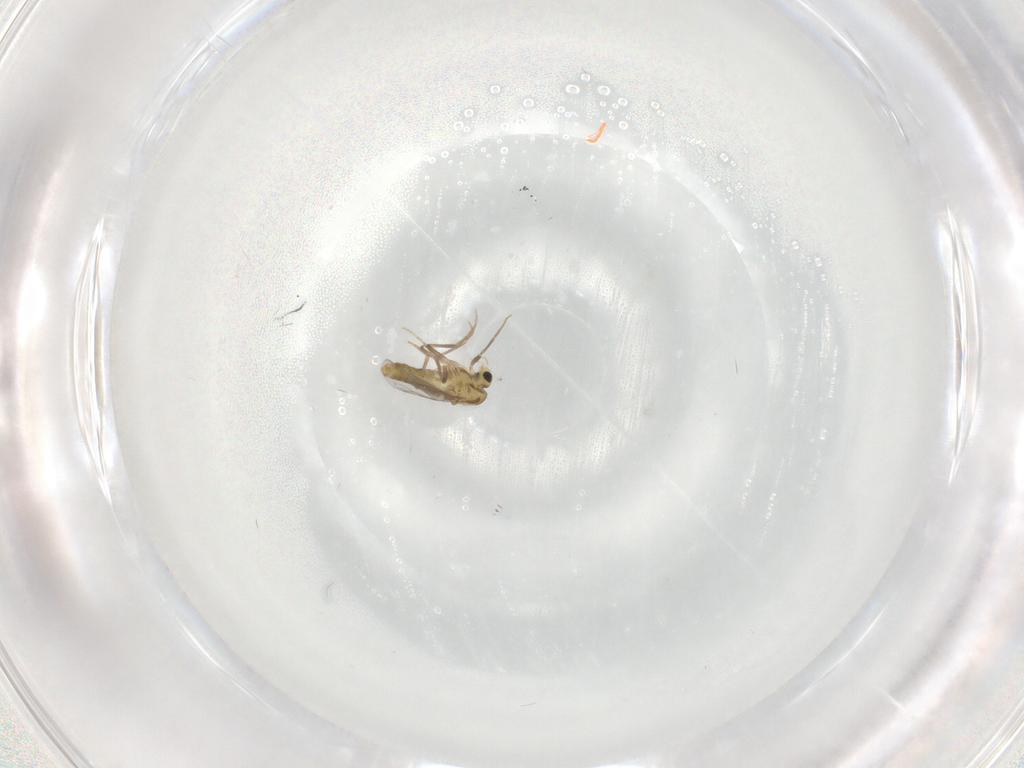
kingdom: Animalia
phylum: Arthropoda
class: Insecta
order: Diptera
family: Chironomidae
